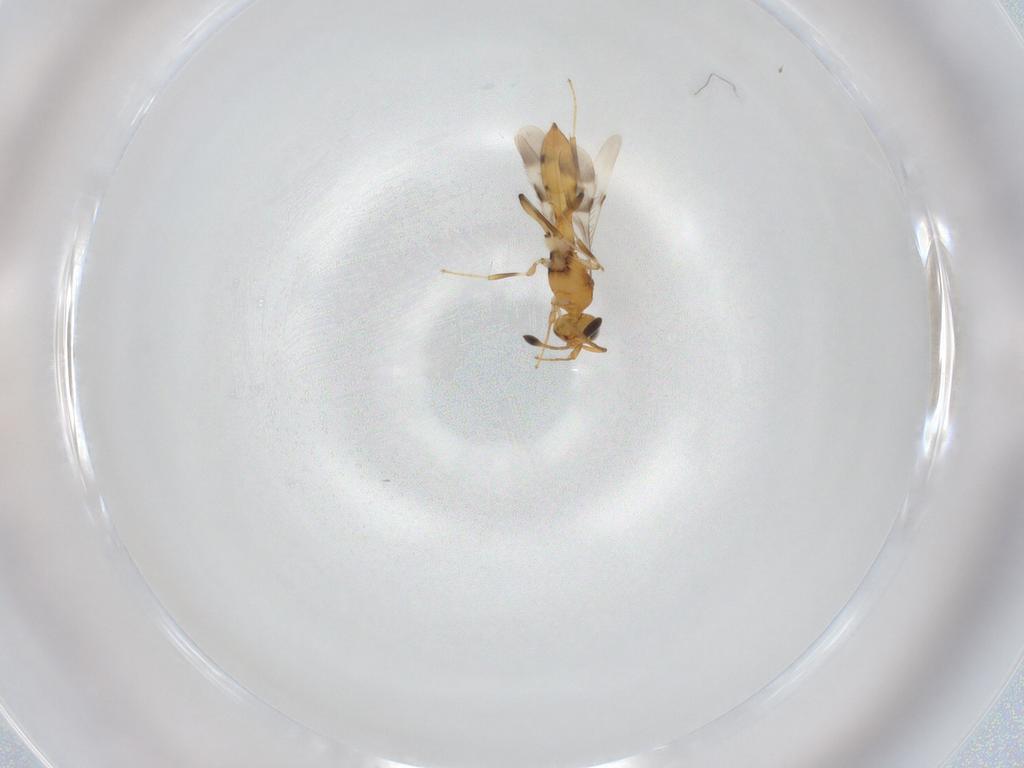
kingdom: Animalia
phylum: Arthropoda
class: Insecta
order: Hymenoptera
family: Scelionidae
